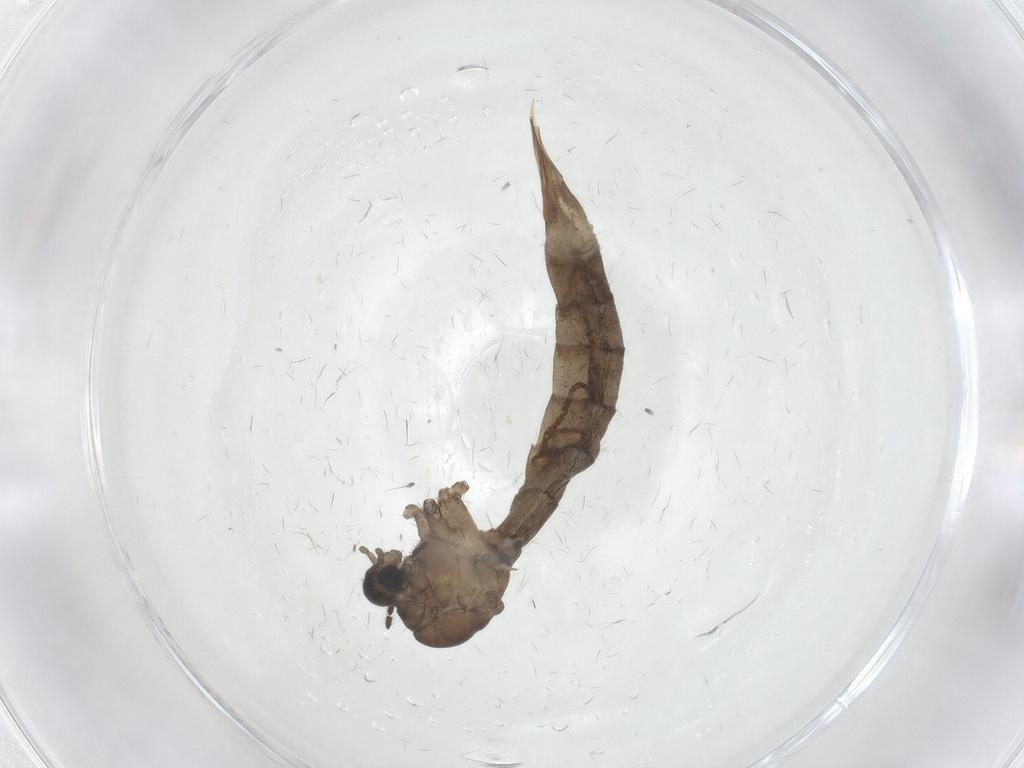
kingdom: Animalia
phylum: Arthropoda
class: Insecta
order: Diptera
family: Limoniidae
